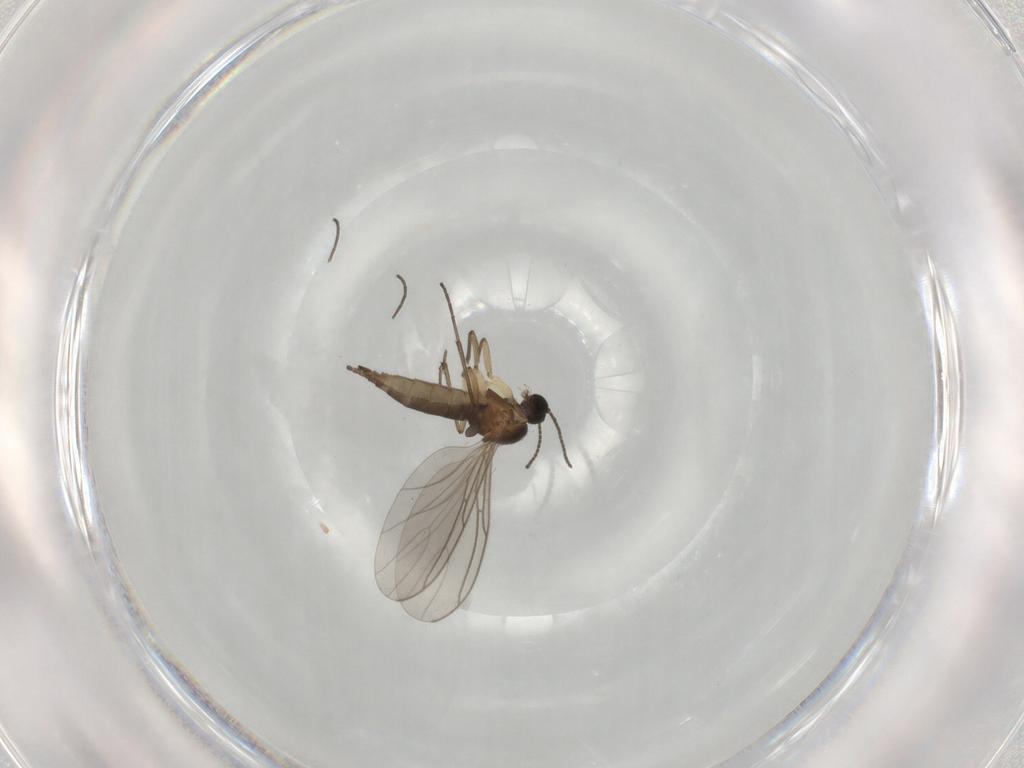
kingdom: Animalia
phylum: Arthropoda
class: Insecta
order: Diptera
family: Sciaridae
